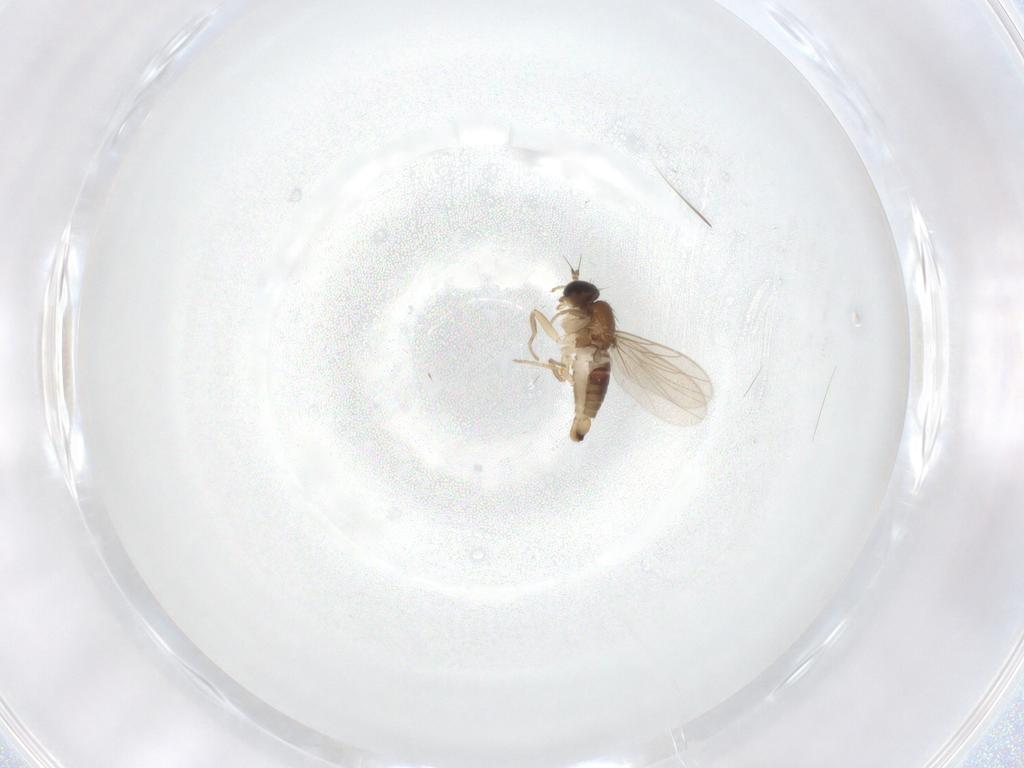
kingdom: Animalia
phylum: Arthropoda
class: Insecta
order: Diptera
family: Hybotidae
